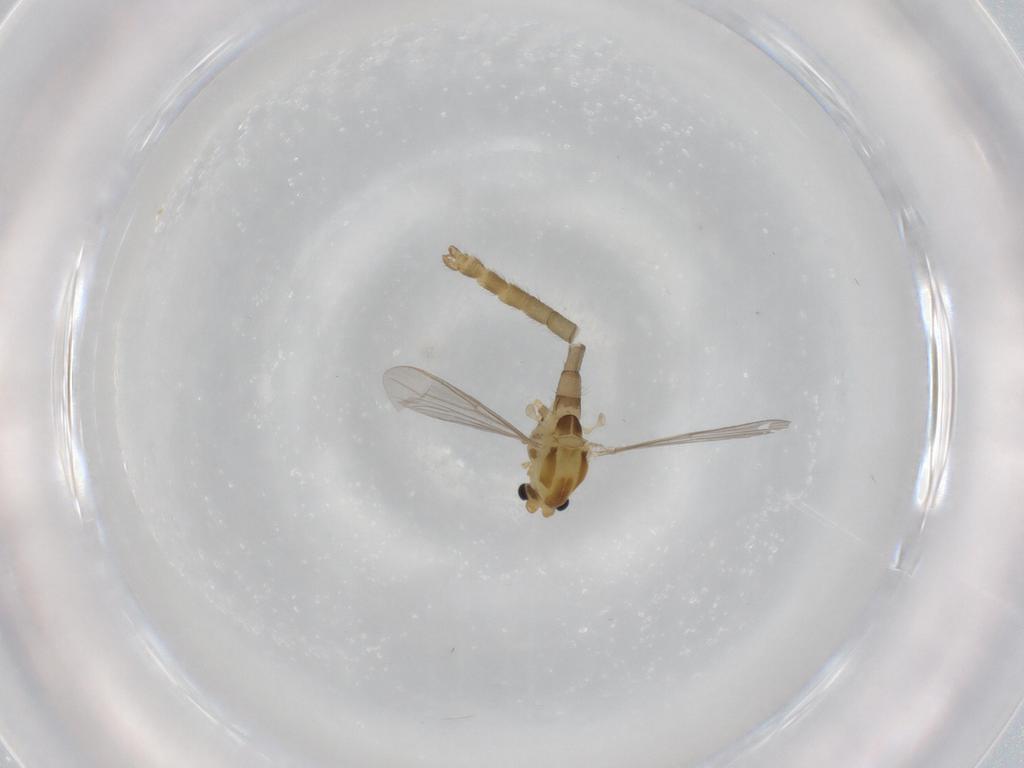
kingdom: Animalia
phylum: Arthropoda
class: Insecta
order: Diptera
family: Chironomidae
